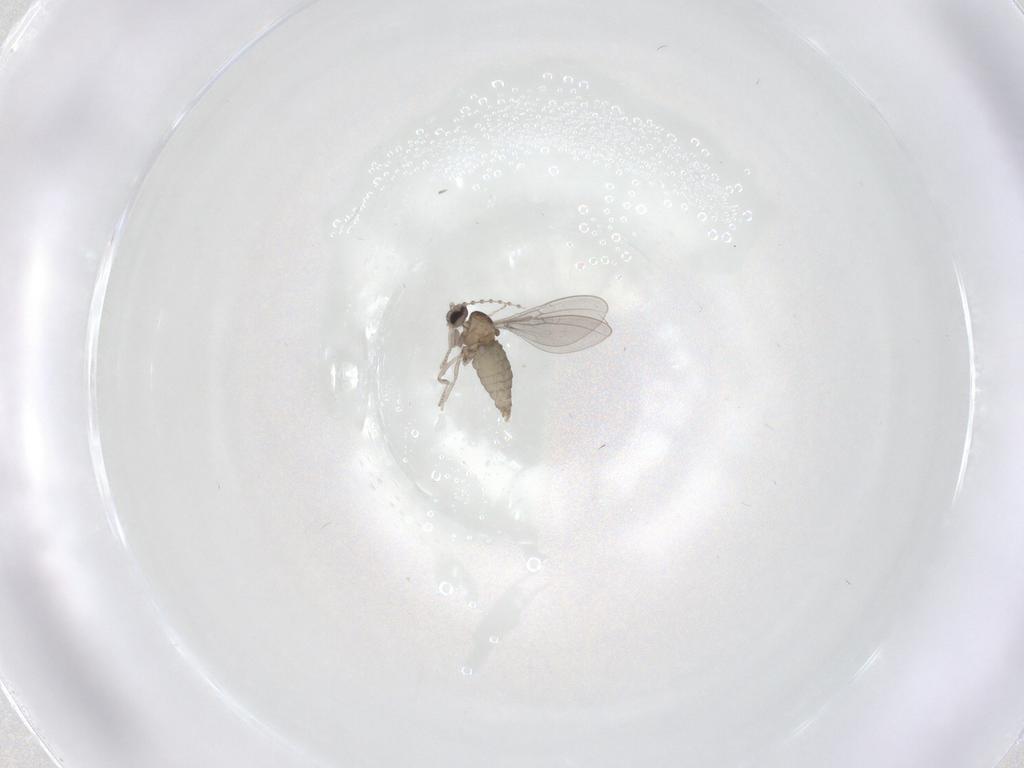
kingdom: Animalia
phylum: Arthropoda
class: Insecta
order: Diptera
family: Cecidomyiidae
